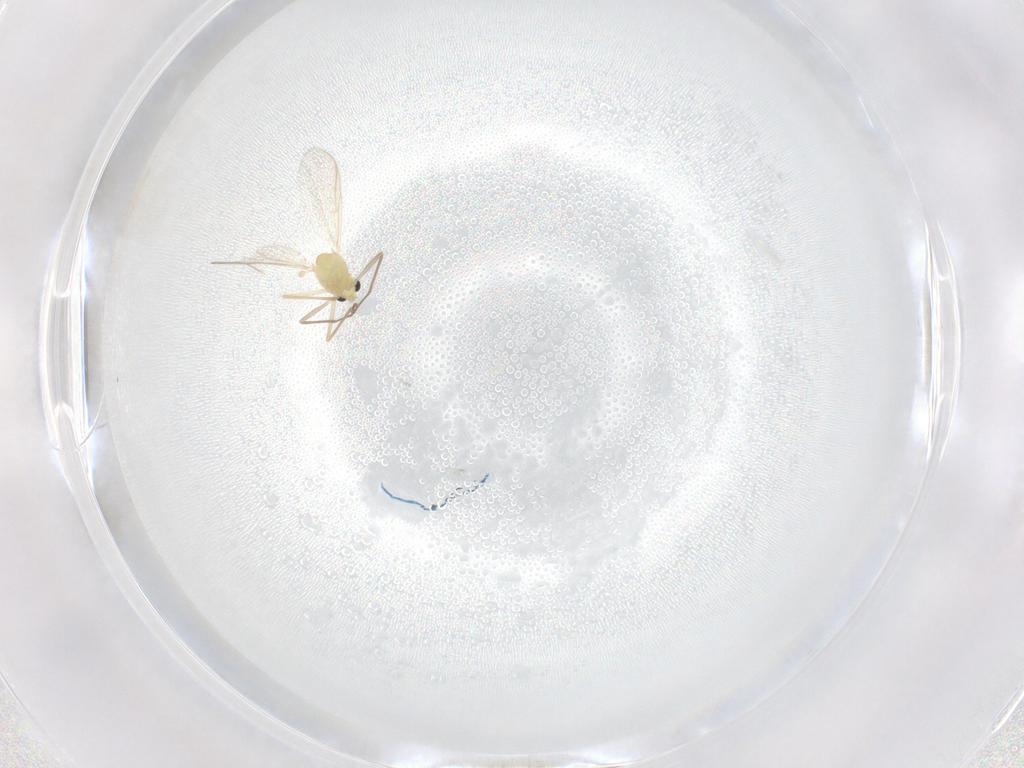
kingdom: Animalia
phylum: Arthropoda
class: Insecta
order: Diptera
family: Chironomidae
